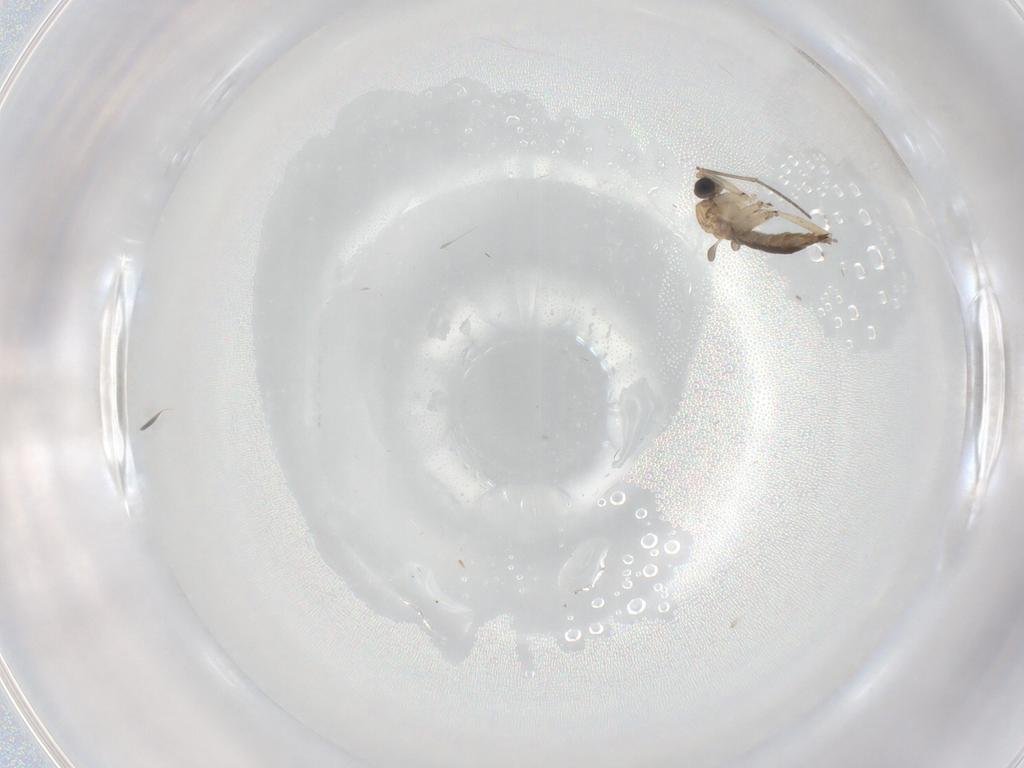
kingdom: Animalia
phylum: Arthropoda
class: Insecta
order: Diptera
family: Sciaridae
